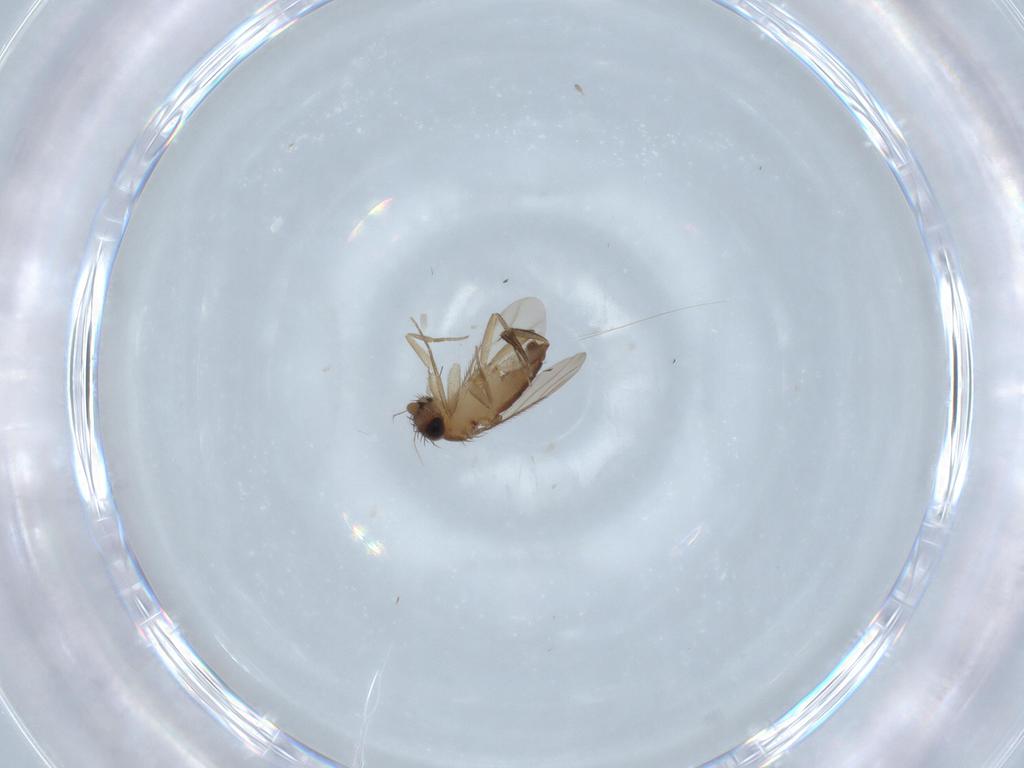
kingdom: Animalia
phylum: Arthropoda
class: Insecta
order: Diptera
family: Phoridae
